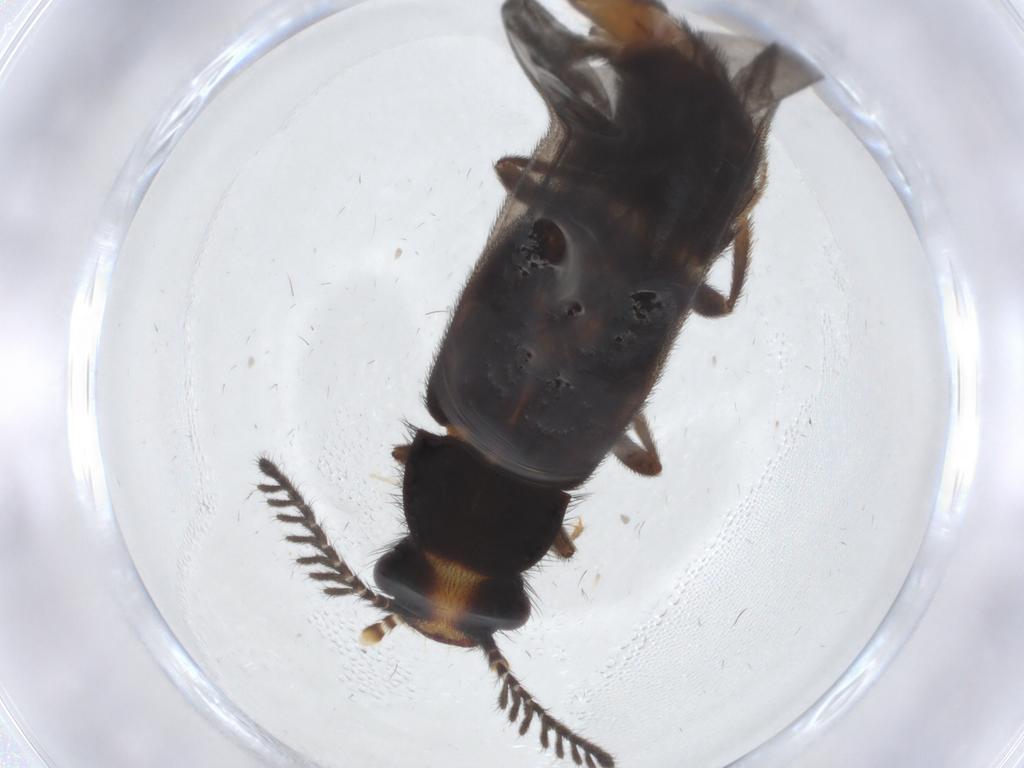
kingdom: Animalia
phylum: Arthropoda
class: Insecta
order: Coleoptera
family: Phengodidae
